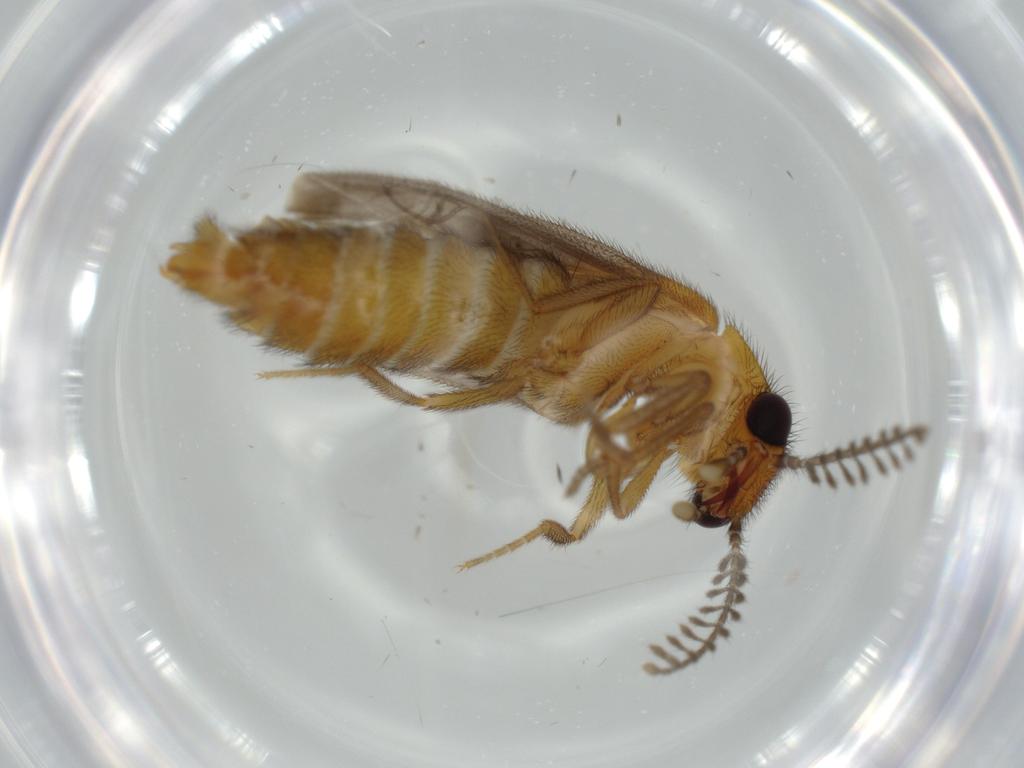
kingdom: Animalia
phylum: Arthropoda
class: Insecta
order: Coleoptera
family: Phengodidae
